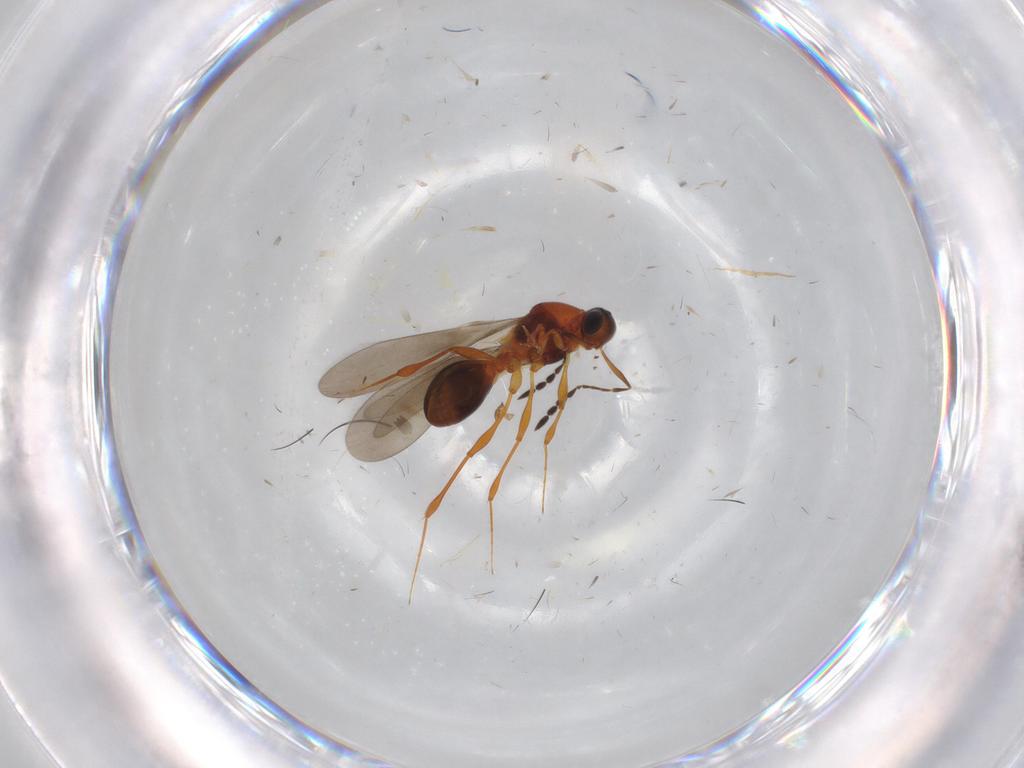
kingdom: Animalia
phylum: Arthropoda
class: Insecta
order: Hymenoptera
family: Platygastridae
